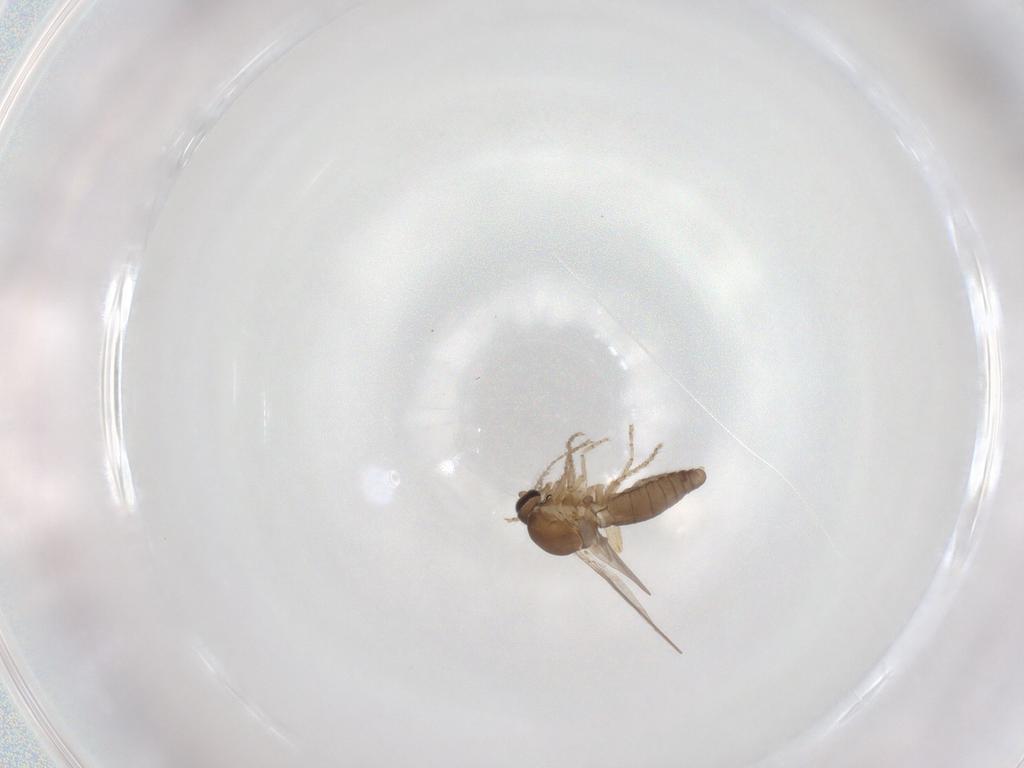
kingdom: Animalia
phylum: Arthropoda
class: Insecta
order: Diptera
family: Ceratopogonidae
